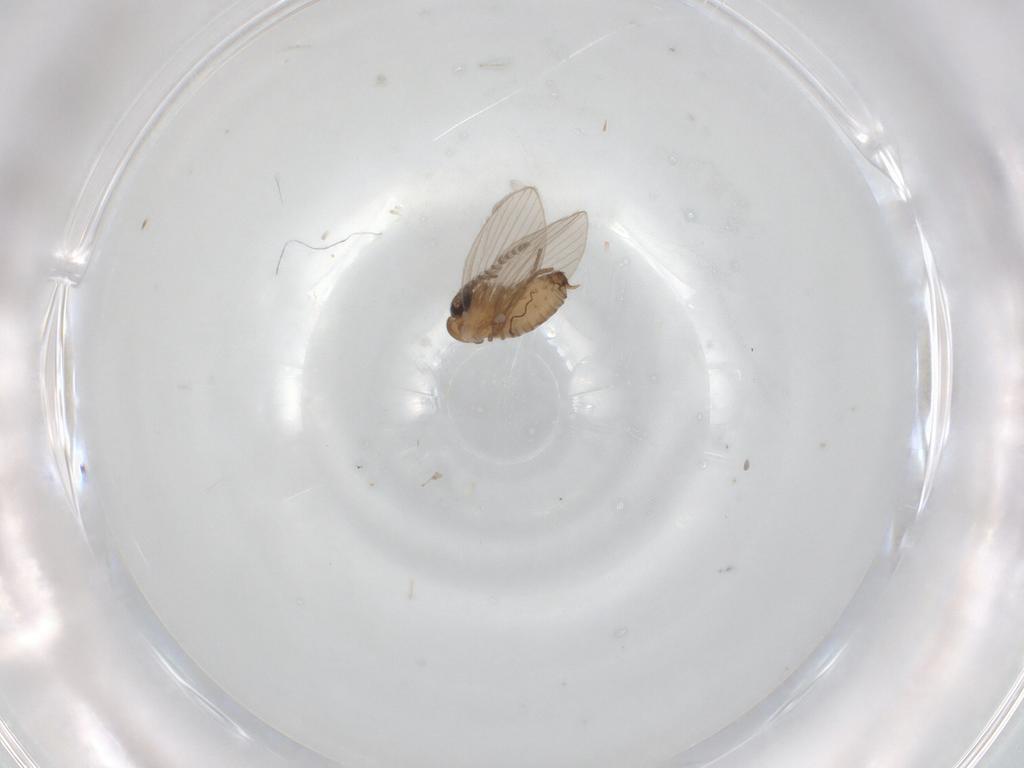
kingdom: Animalia
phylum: Arthropoda
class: Insecta
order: Diptera
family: Psychodidae
